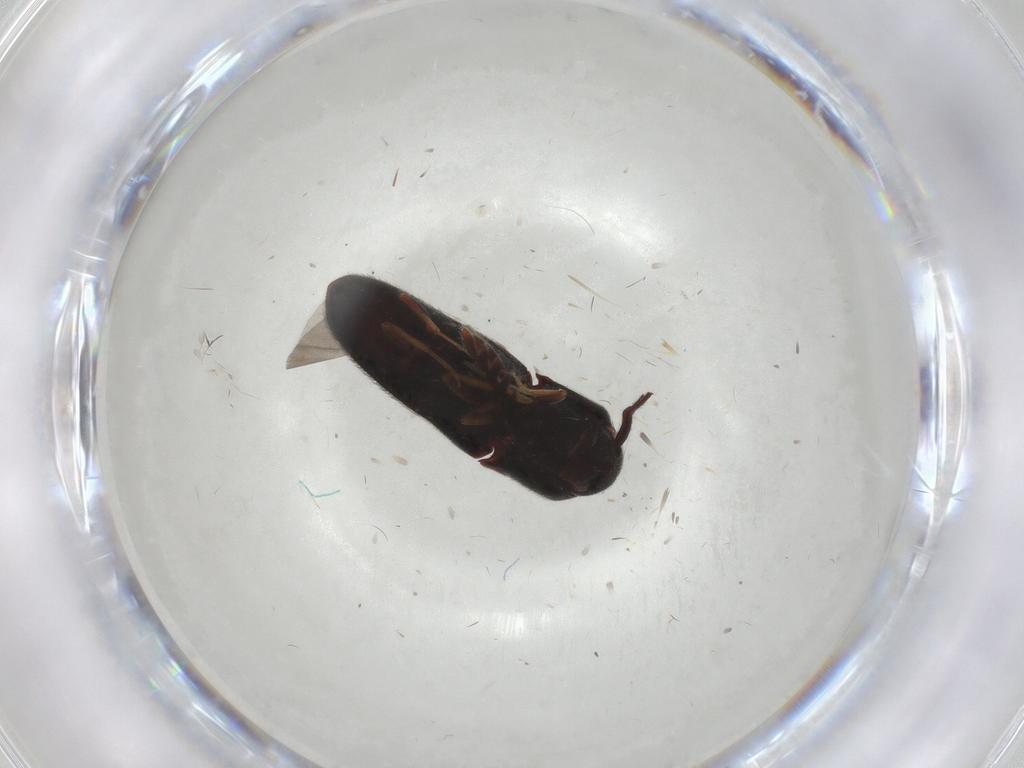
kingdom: Animalia
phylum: Arthropoda
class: Insecta
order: Coleoptera
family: Eucnemidae
